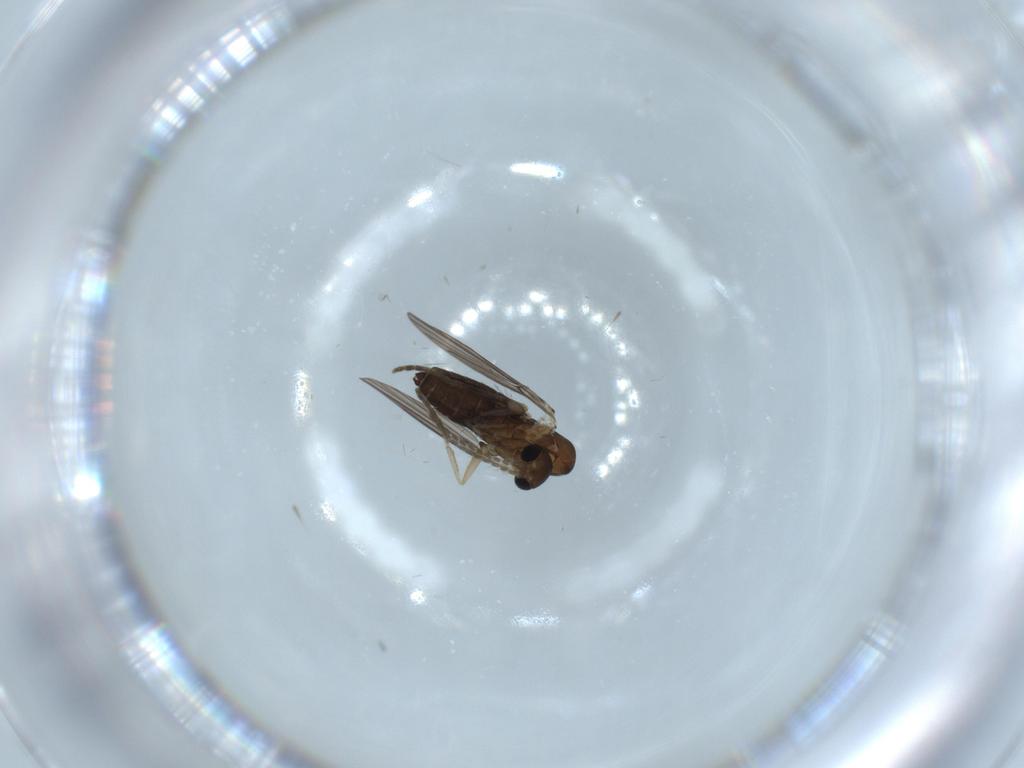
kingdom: Animalia
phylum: Arthropoda
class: Insecta
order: Diptera
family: Psychodidae
